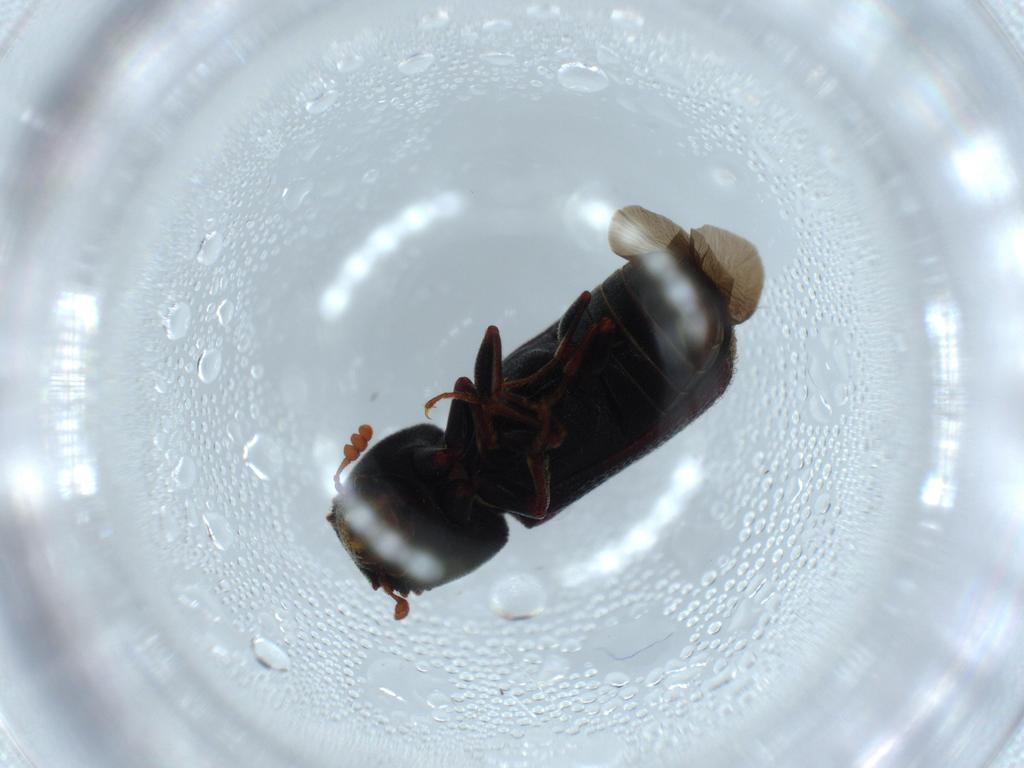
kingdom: Animalia
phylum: Arthropoda
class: Insecta
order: Coleoptera
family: Bostrichidae
